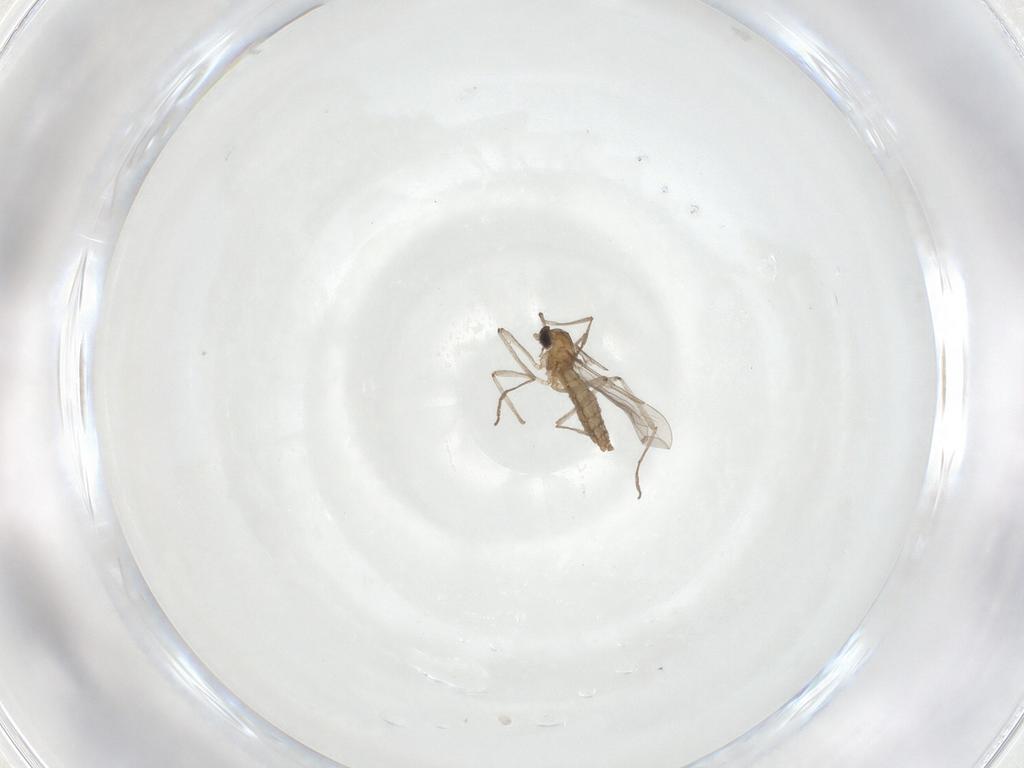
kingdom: Animalia
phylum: Arthropoda
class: Insecta
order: Diptera
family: Cecidomyiidae
